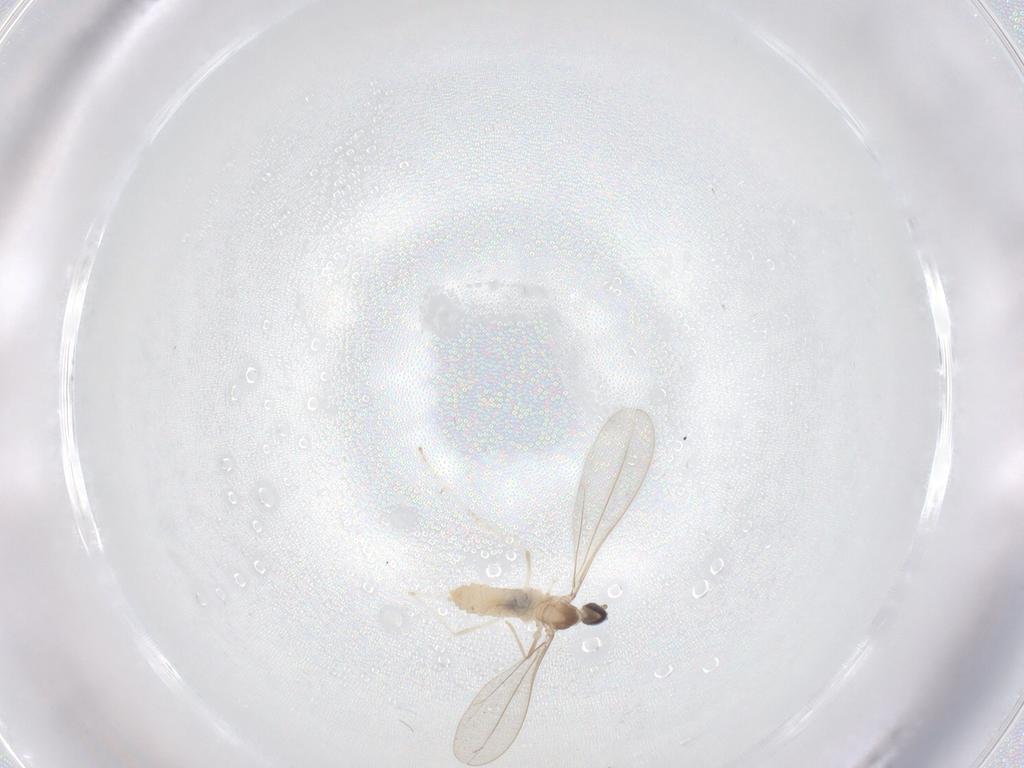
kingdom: Animalia
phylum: Arthropoda
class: Insecta
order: Diptera
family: Cecidomyiidae
